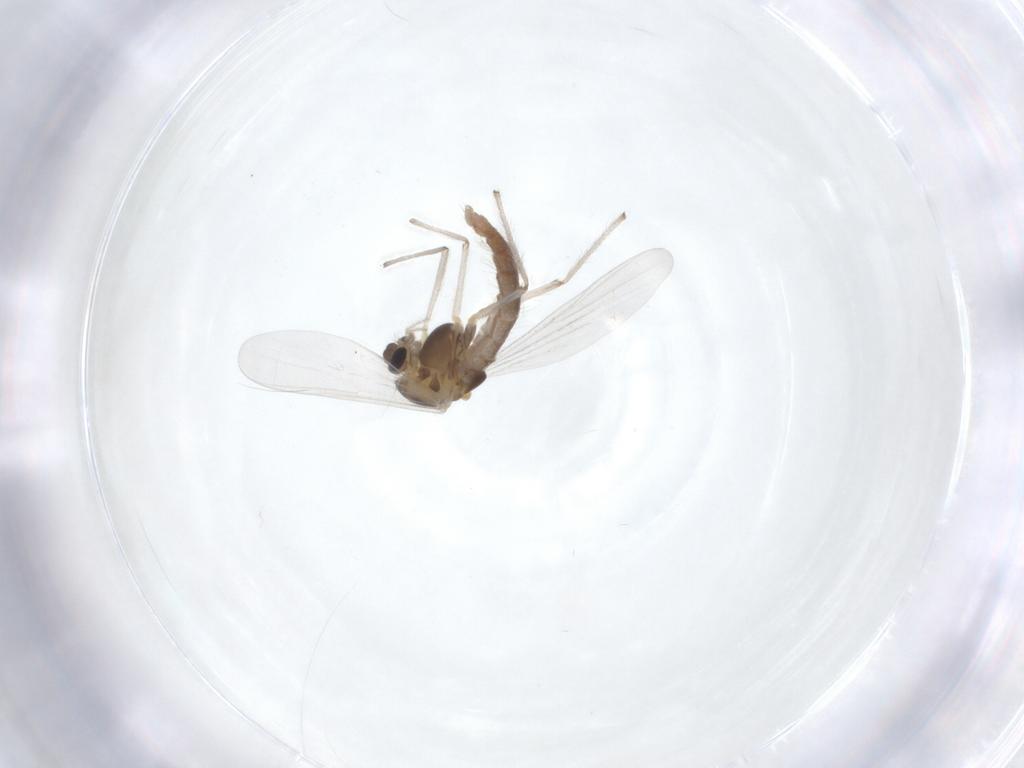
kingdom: Animalia
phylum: Arthropoda
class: Insecta
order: Diptera
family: Chironomidae
